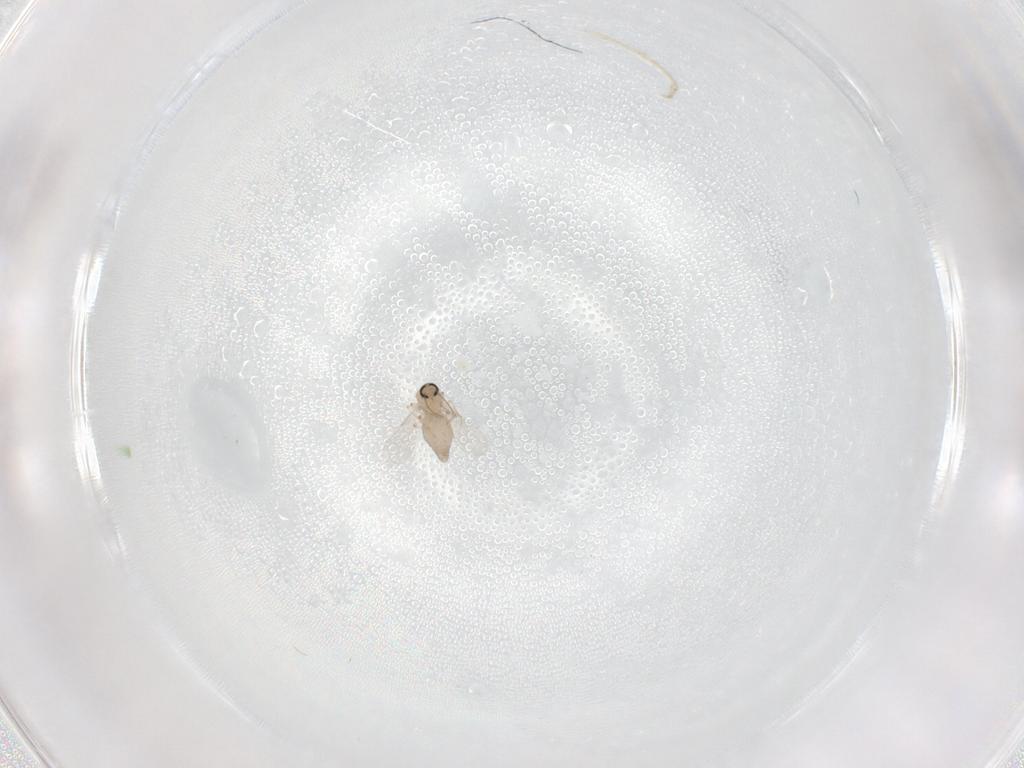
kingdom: Animalia
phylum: Arthropoda
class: Insecta
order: Diptera
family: Ceratopogonidae
